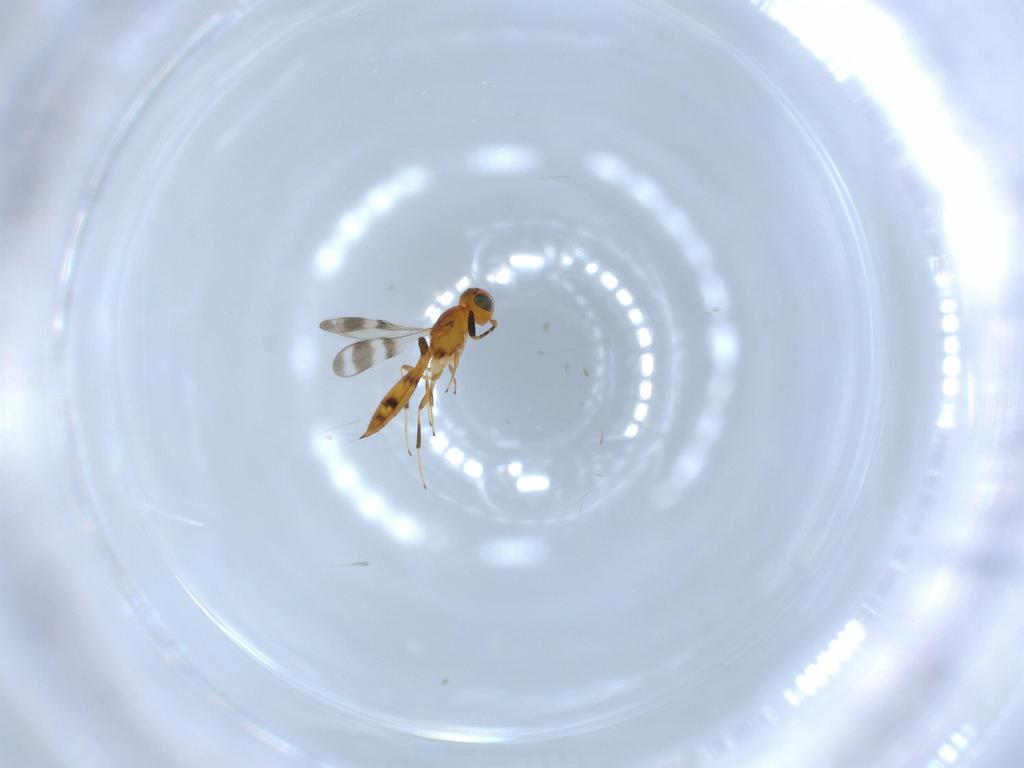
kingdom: Animalia
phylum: Arthropoda
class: Insecta
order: Hymenoptera
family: Scelionidae
